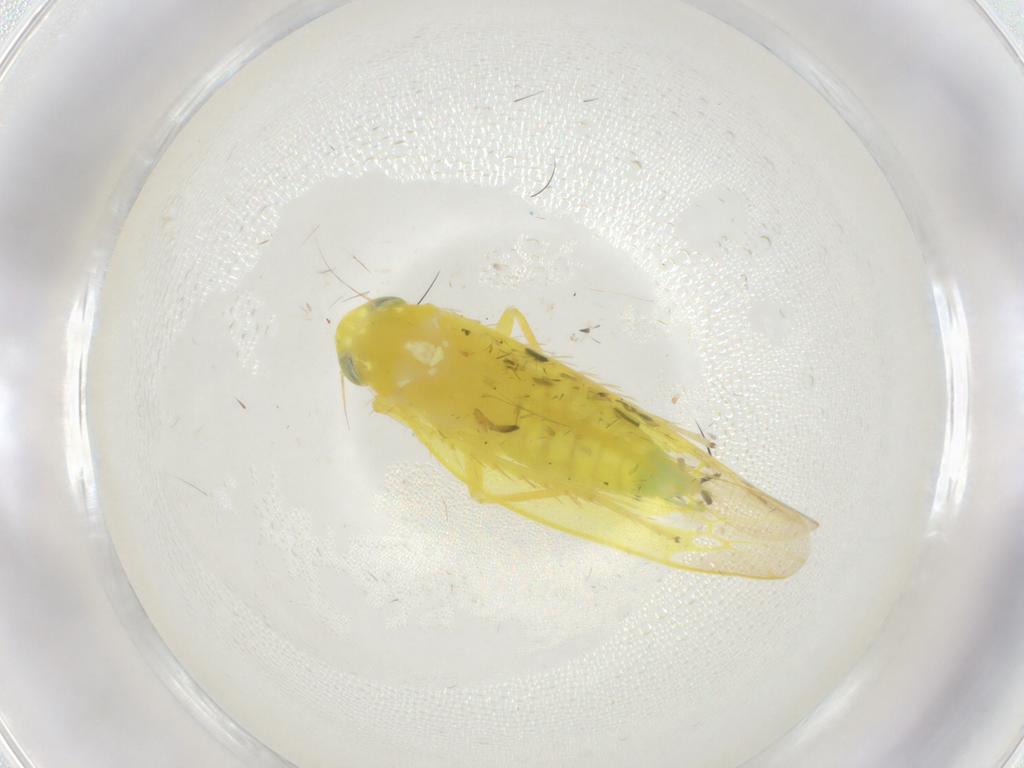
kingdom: Animalia
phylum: Arthropoda
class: Insecta
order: Hemiptera
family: Cicadellidae
